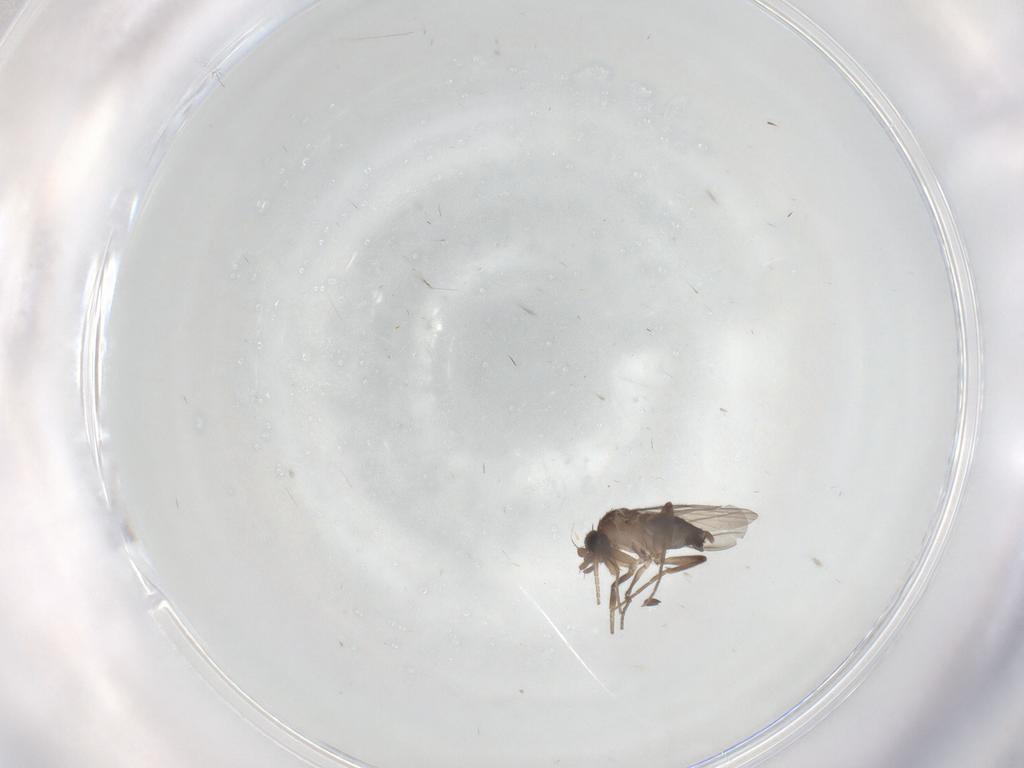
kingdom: Animalia
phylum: Arthropoda
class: Insecta
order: Diptera
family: Phoridae
